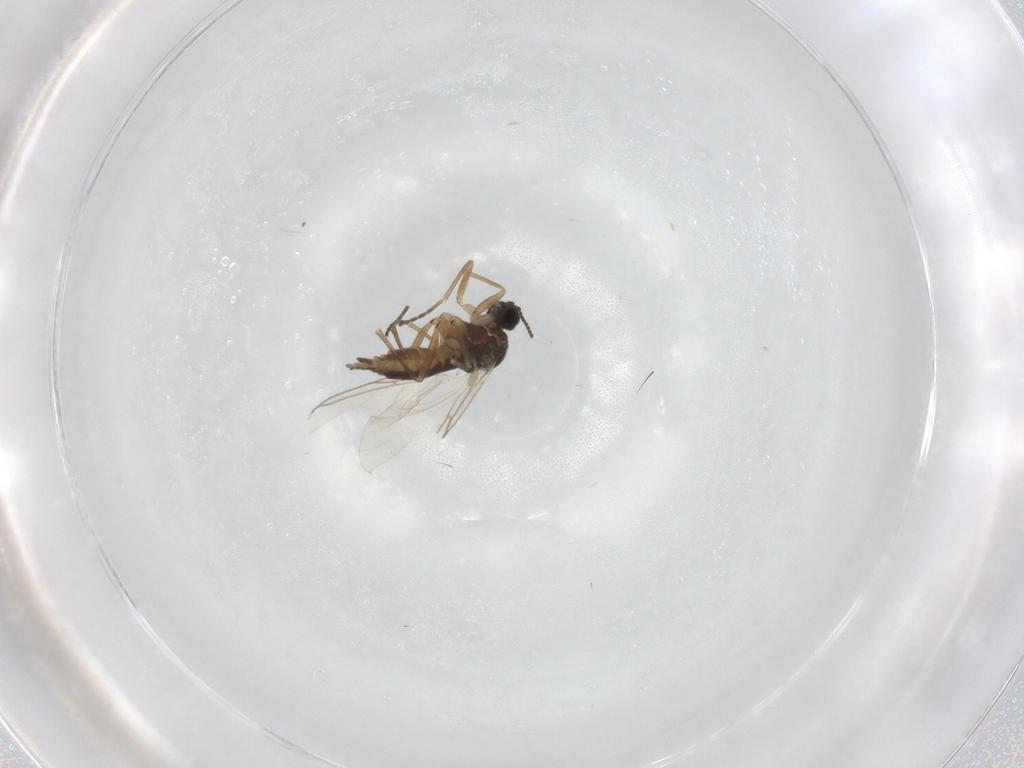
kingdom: Animalia
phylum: Arthropoda
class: Insecta
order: Diptera
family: Sciaridae
